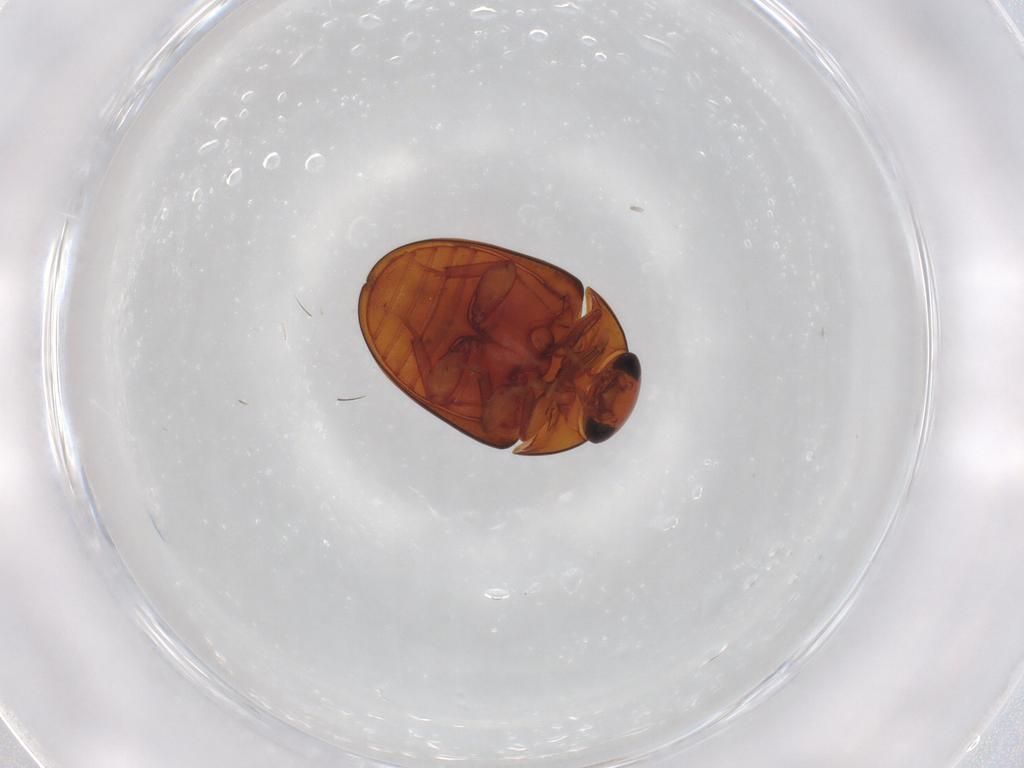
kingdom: Animalia
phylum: Arthropoda
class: Insecta
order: Coleoptera
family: Phalacridae
